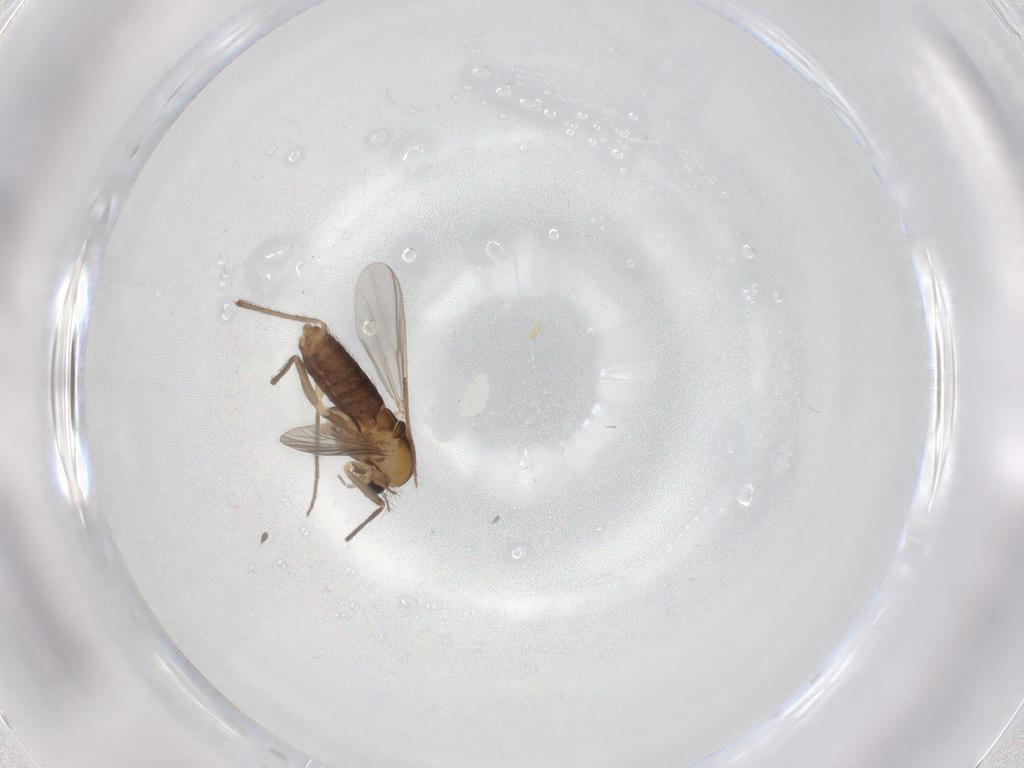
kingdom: Animalia
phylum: Arthropoda
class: Insecta
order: Diptera
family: Chironomidae
